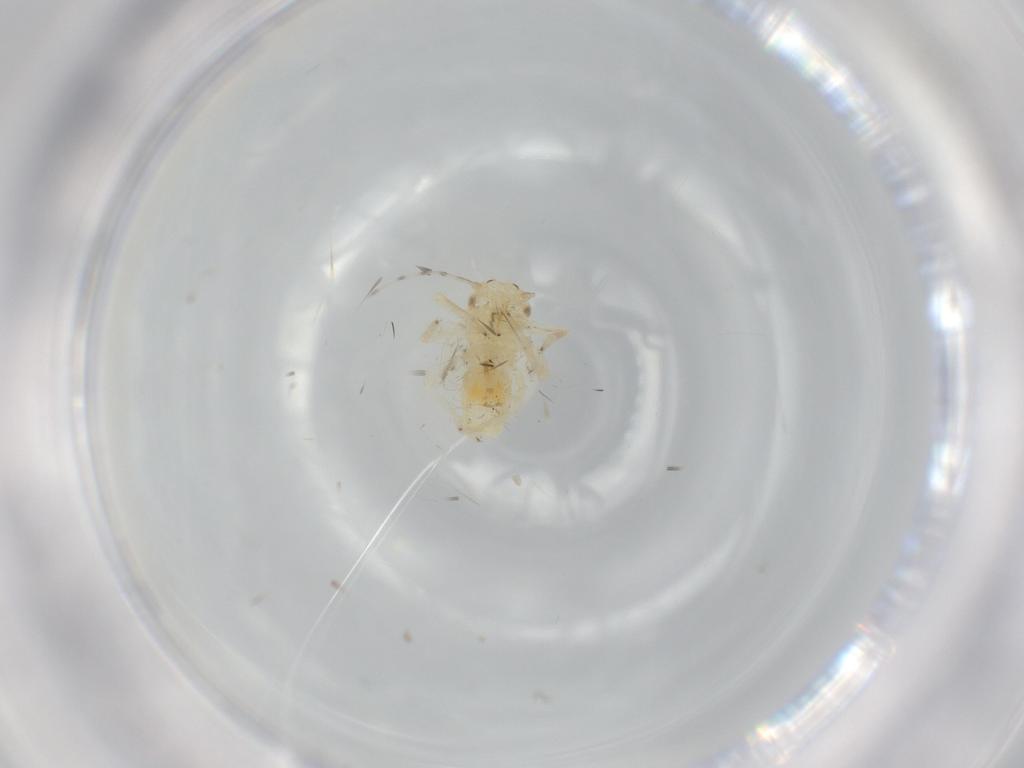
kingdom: Animalia
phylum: Arthropoda
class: Insecta
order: Hemiptera
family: Psyllidae
